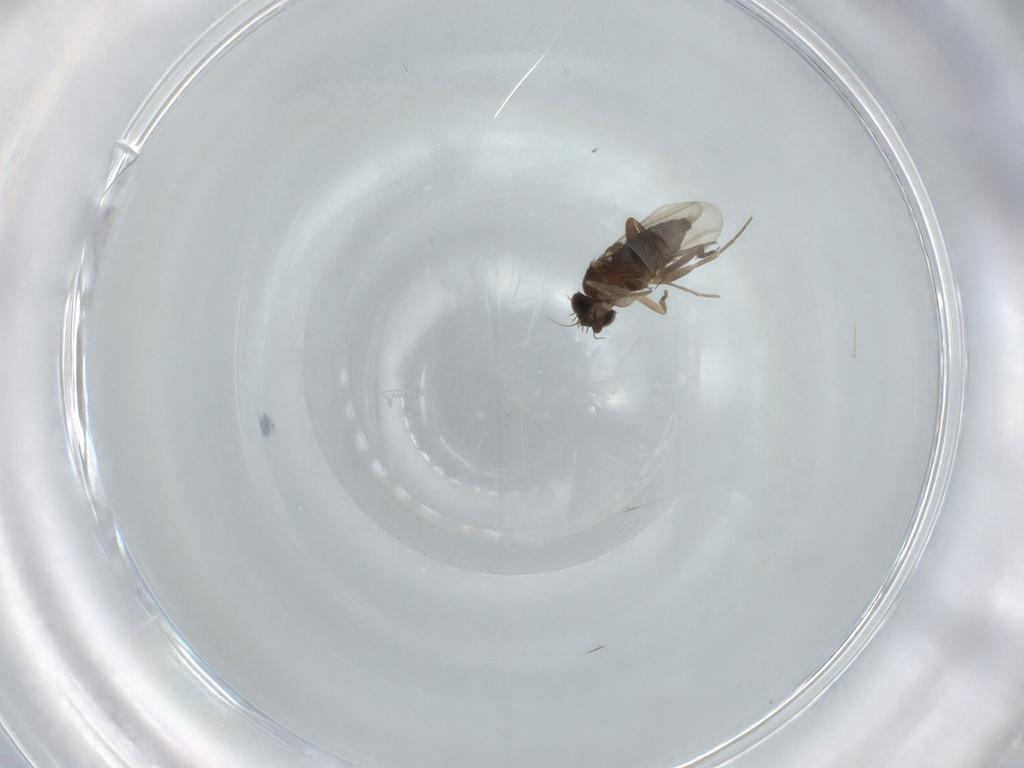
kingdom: Animalia
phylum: Arthropoda
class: Insecta
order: Diptera
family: Phoridae
